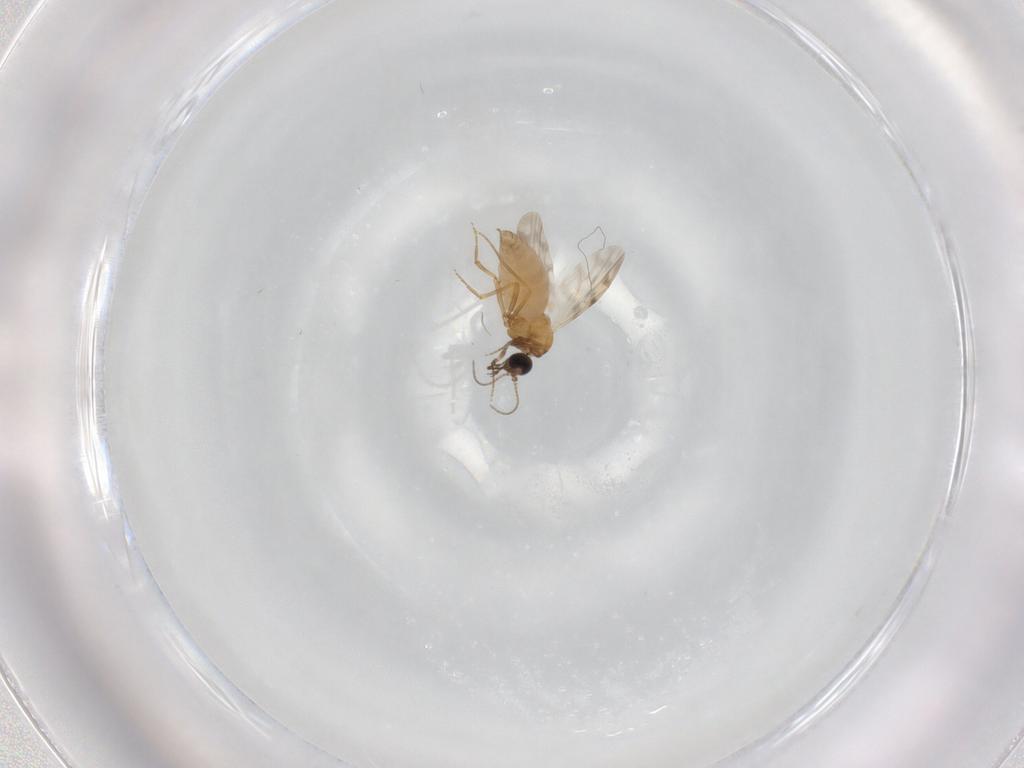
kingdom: Animalia
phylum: Arthropoda
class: Insecta
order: Diptera
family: Ceratopogonidae
